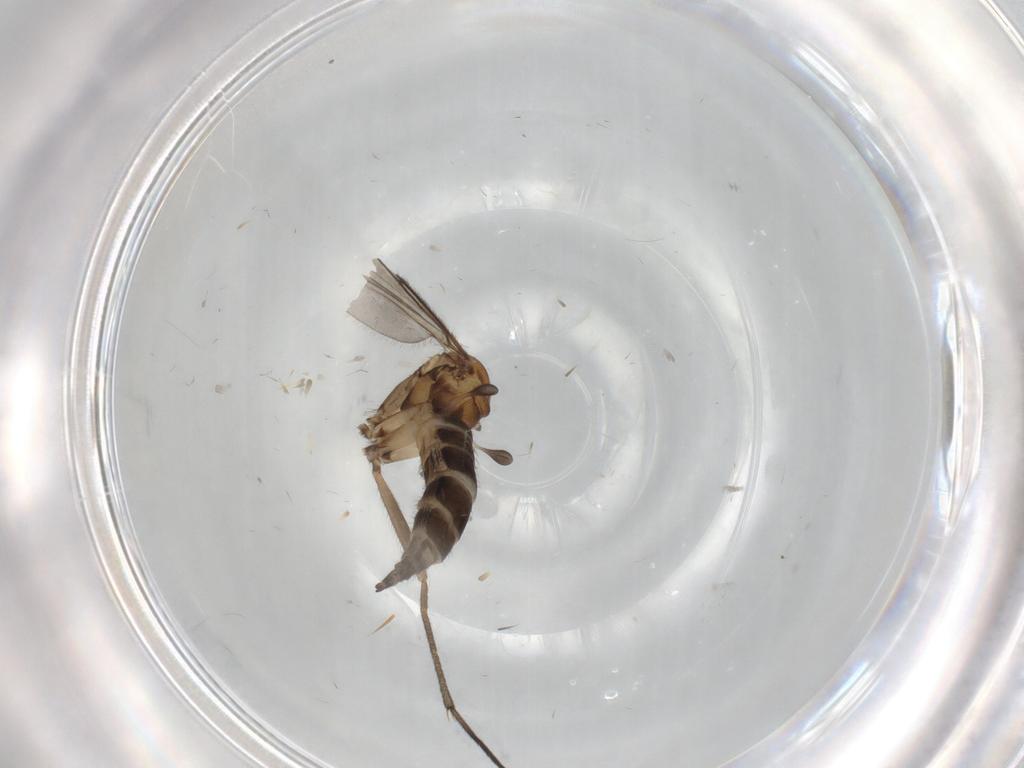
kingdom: Animalia
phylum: Arthropoda
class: Insecta
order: Diptera
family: Sciaridae
